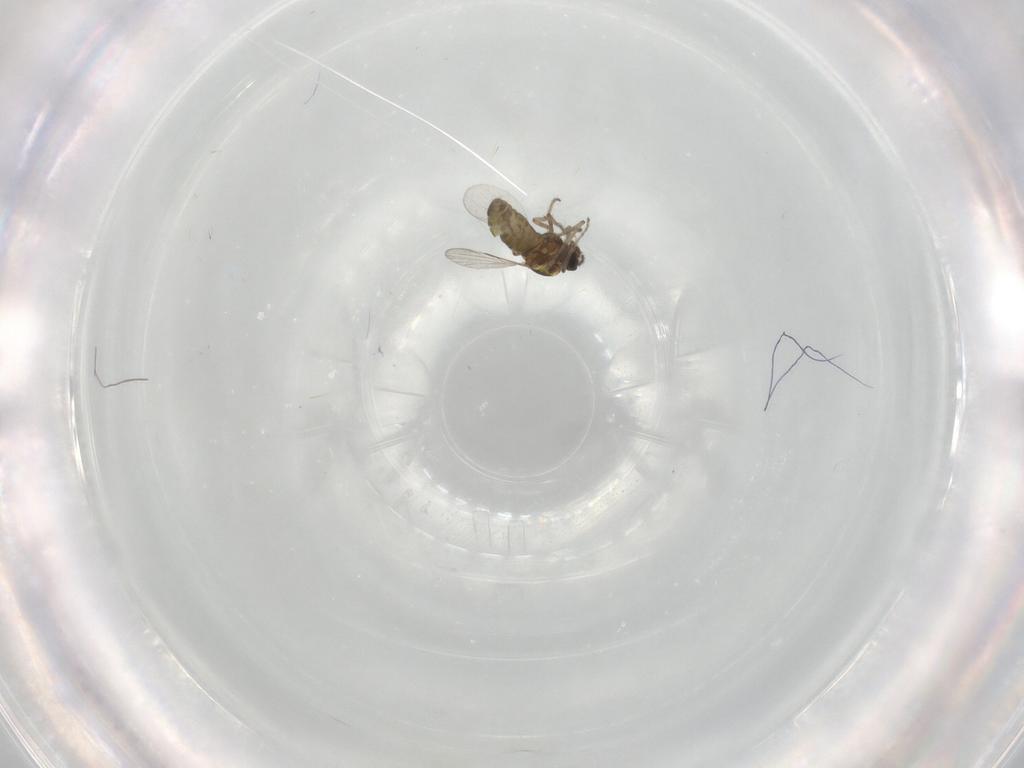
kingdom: Animalia
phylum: Arthropoda
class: Insecta
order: Diptera
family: Ceratopogonidae
